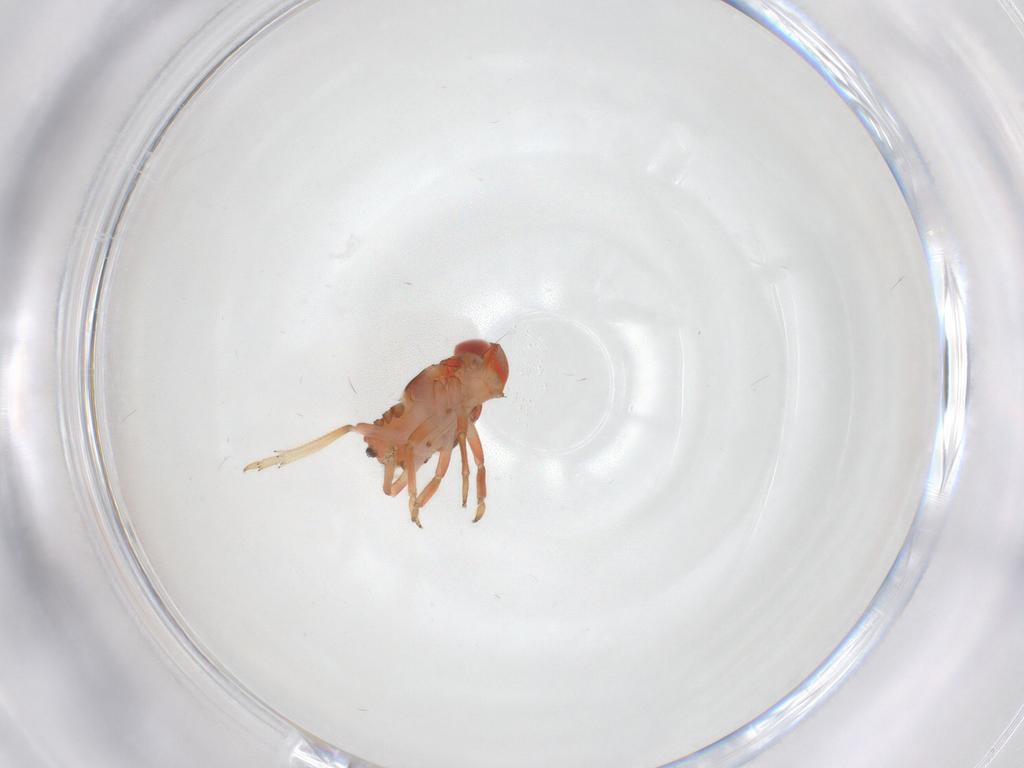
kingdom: Animalia
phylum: Arthropoda
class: Insecta
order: Hemiptera
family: Issidae
